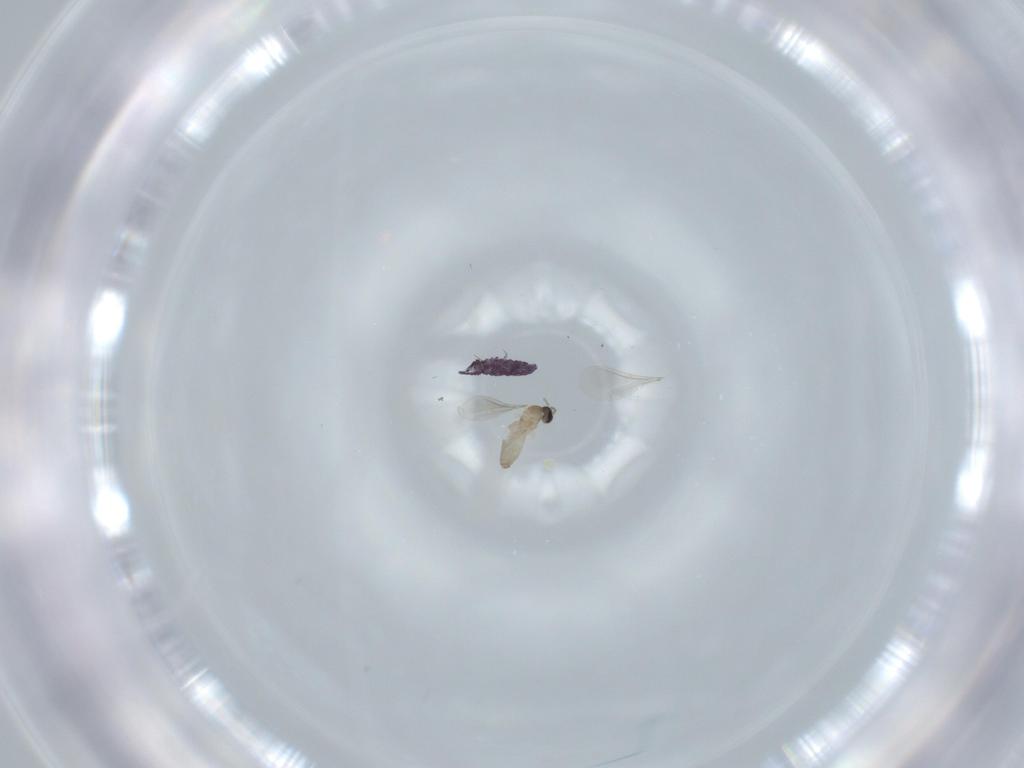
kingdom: Animalia
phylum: Arthropoda
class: Insecta
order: Diptera
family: Cecidomyiidae
